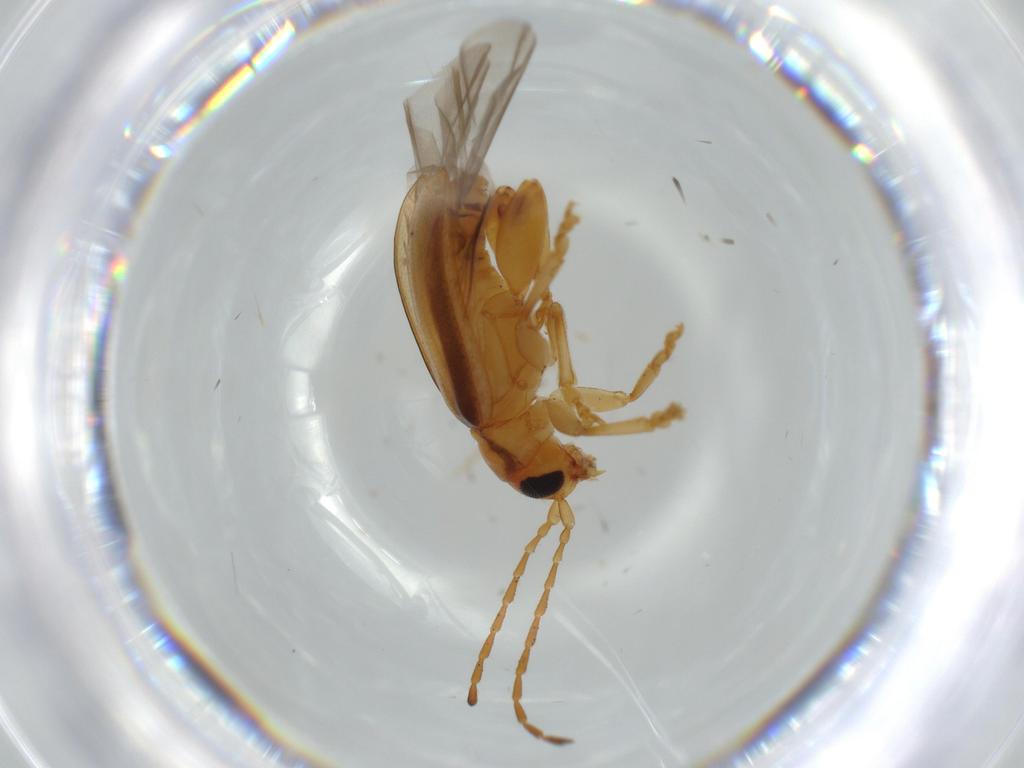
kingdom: Animalia
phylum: Arthropoda
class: Insecta
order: Coleoptera
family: Chrysomelidae
